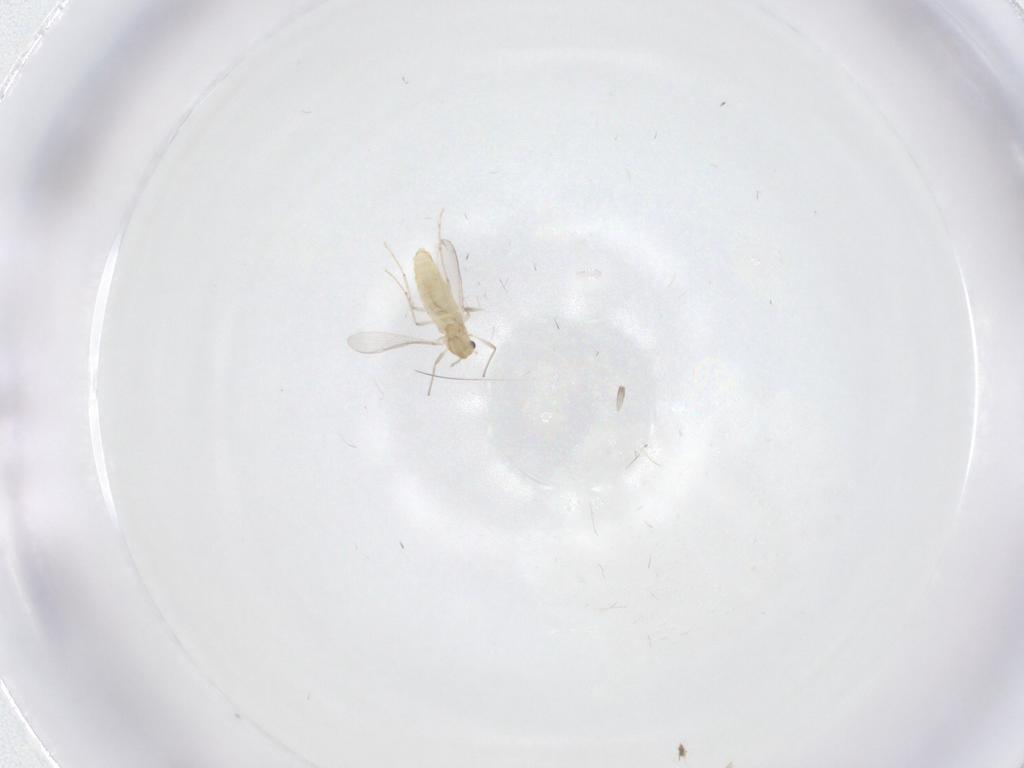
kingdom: Animalia
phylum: Arthropoda
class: Insecta
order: Diptera
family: Chironomidae
